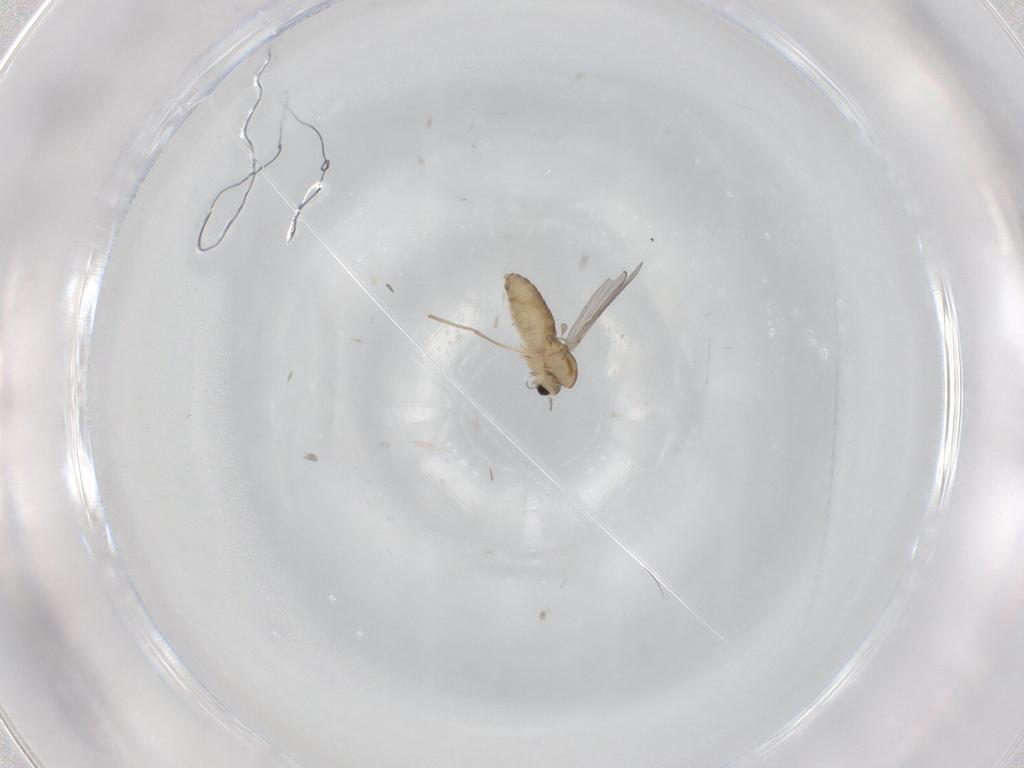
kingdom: Animalia
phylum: Arthropoda
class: Insecta
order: Diptera
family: Chironomidae
